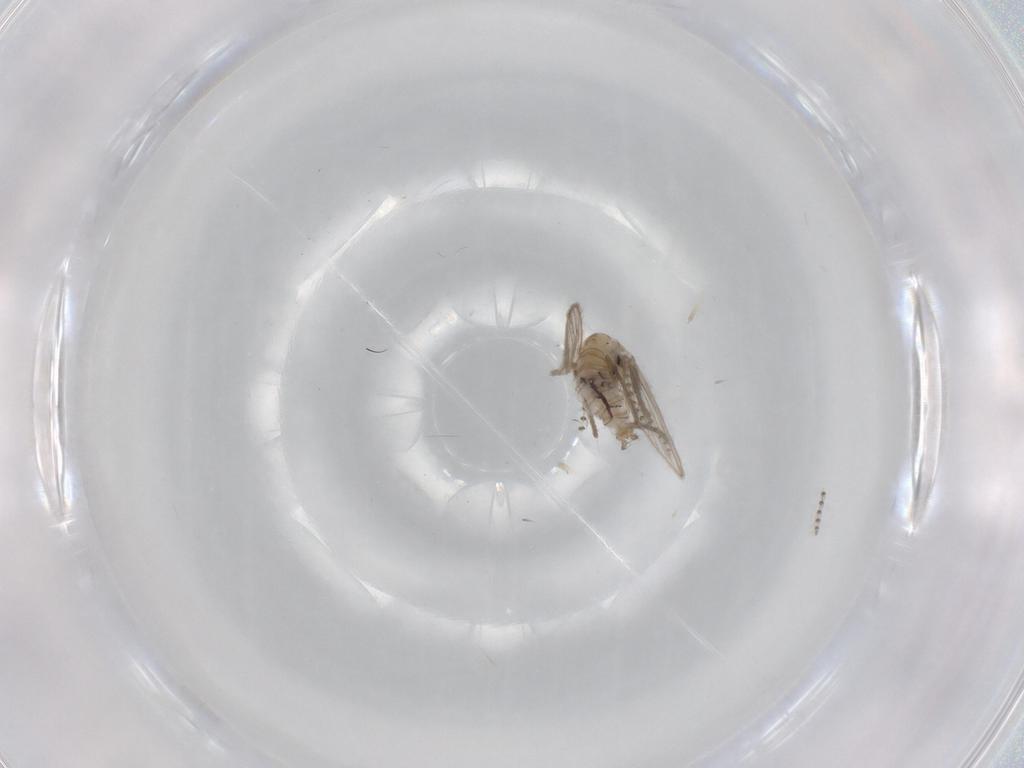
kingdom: Animalia
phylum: Arthropoda
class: Insecta
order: Diptera
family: Psychodidae
